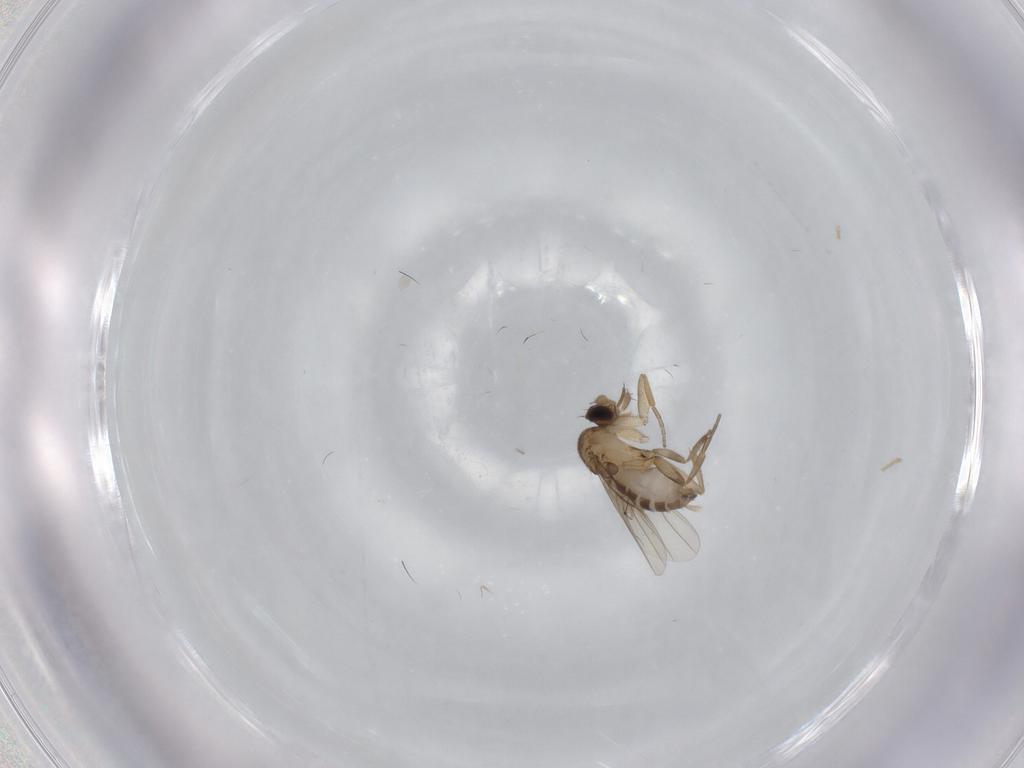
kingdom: Animalia
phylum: Arthropoda
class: Insecta
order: Diptera
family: Phoridae
